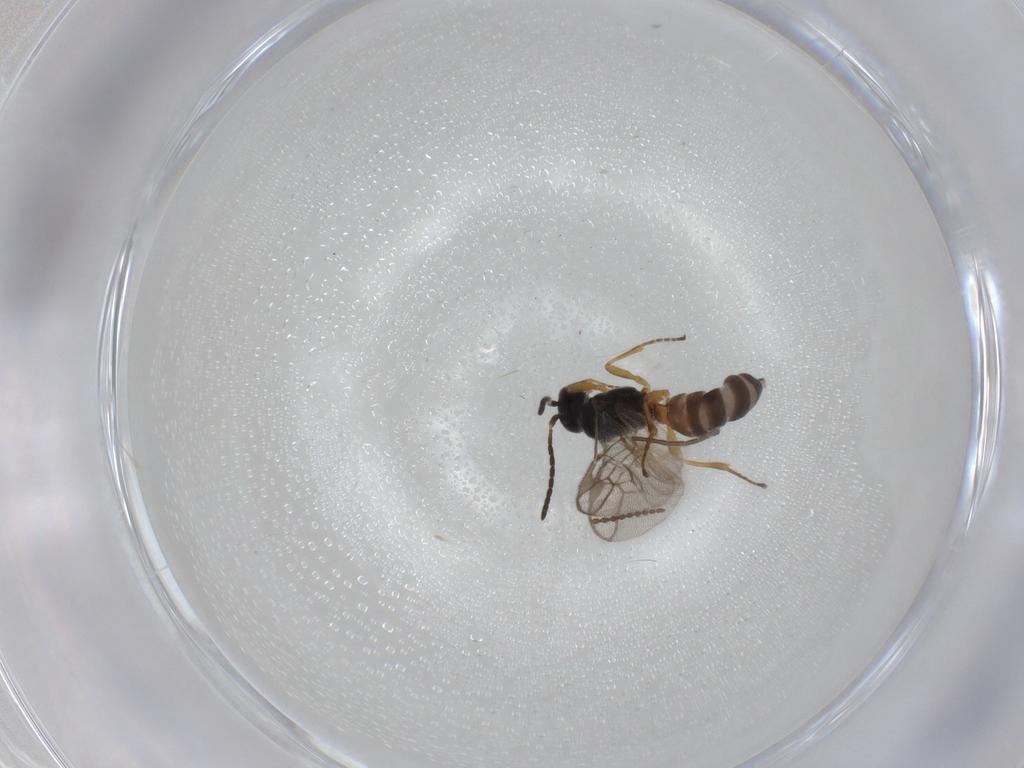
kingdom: Animalia
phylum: Arthropoda
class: Insecta
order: Hymenoptera
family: Braconidae
